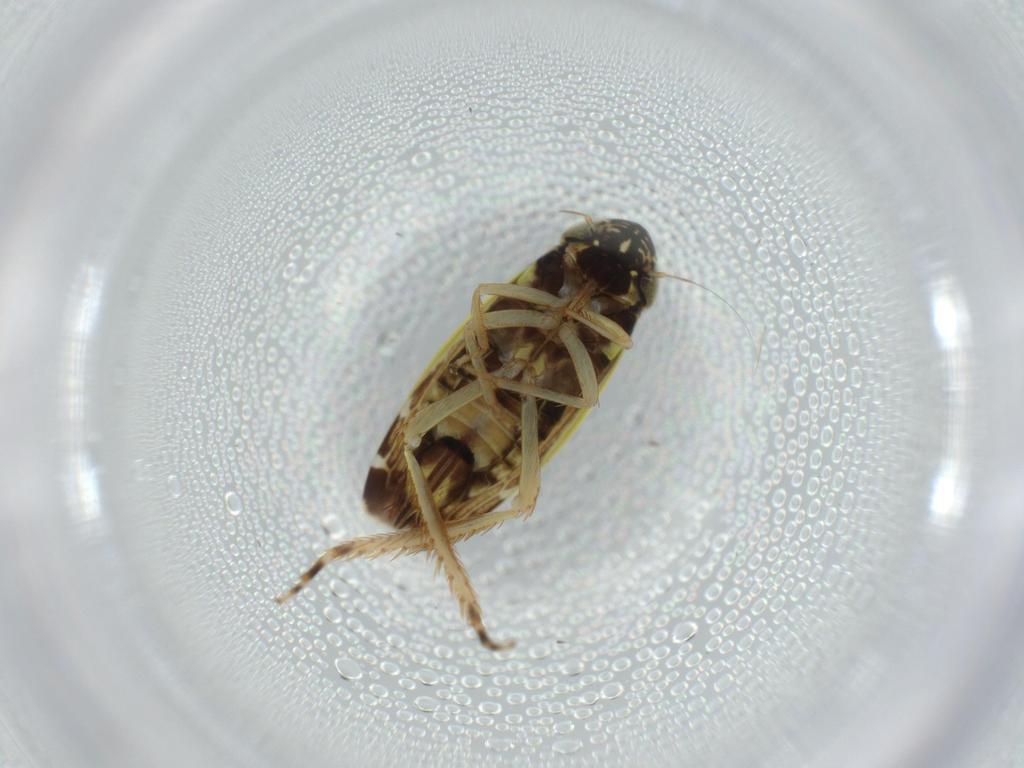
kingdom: Animalia
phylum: Arthropoda
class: Insecta
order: Hemiptera
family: Cicadellidae
